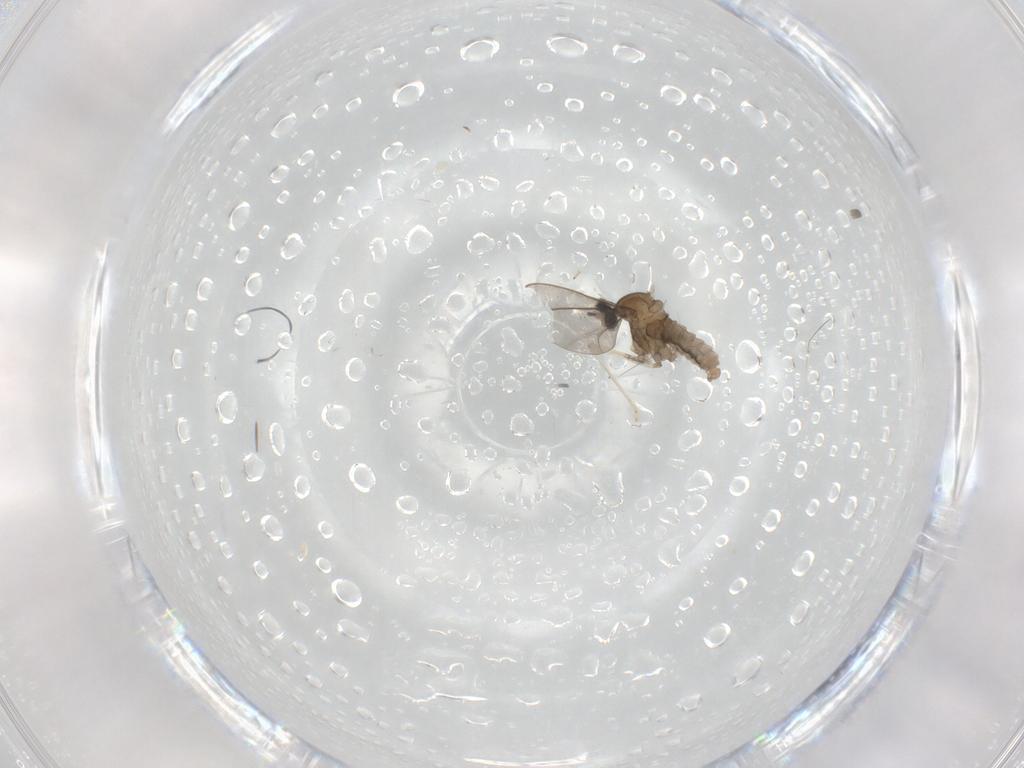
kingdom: Animalia
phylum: Arthropoda
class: Insecta
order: Diptera
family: Cecidomyiidae
